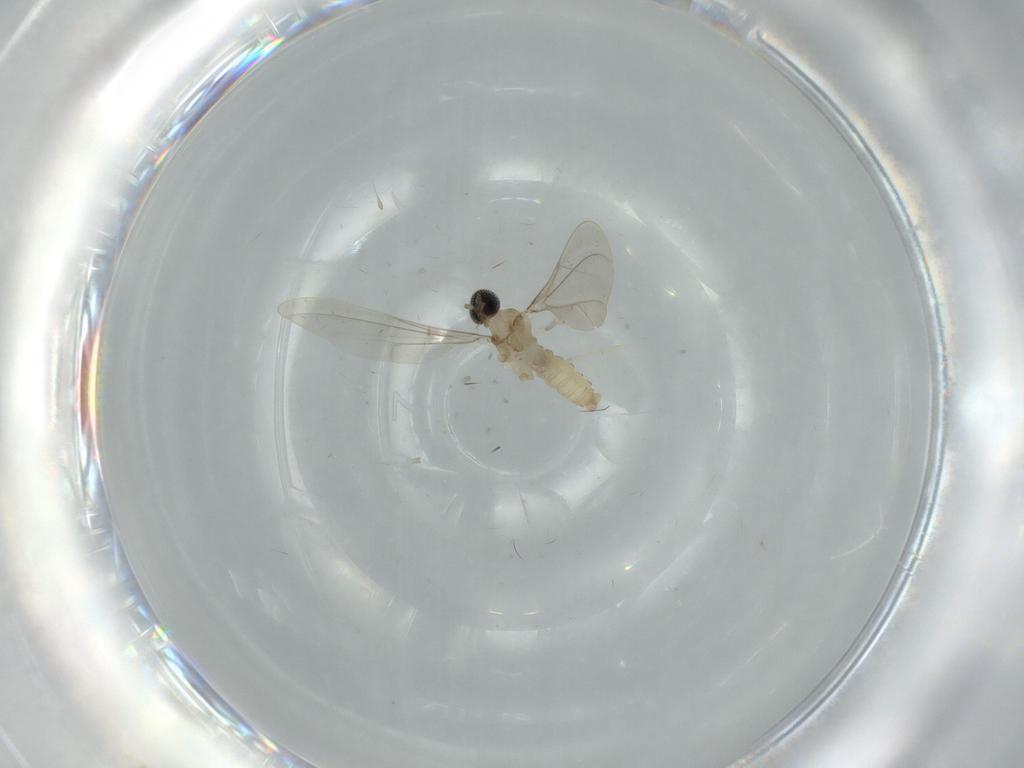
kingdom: Animalia
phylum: Arthropoda
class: Insecta
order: Diptera
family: Cecidomyiidae
